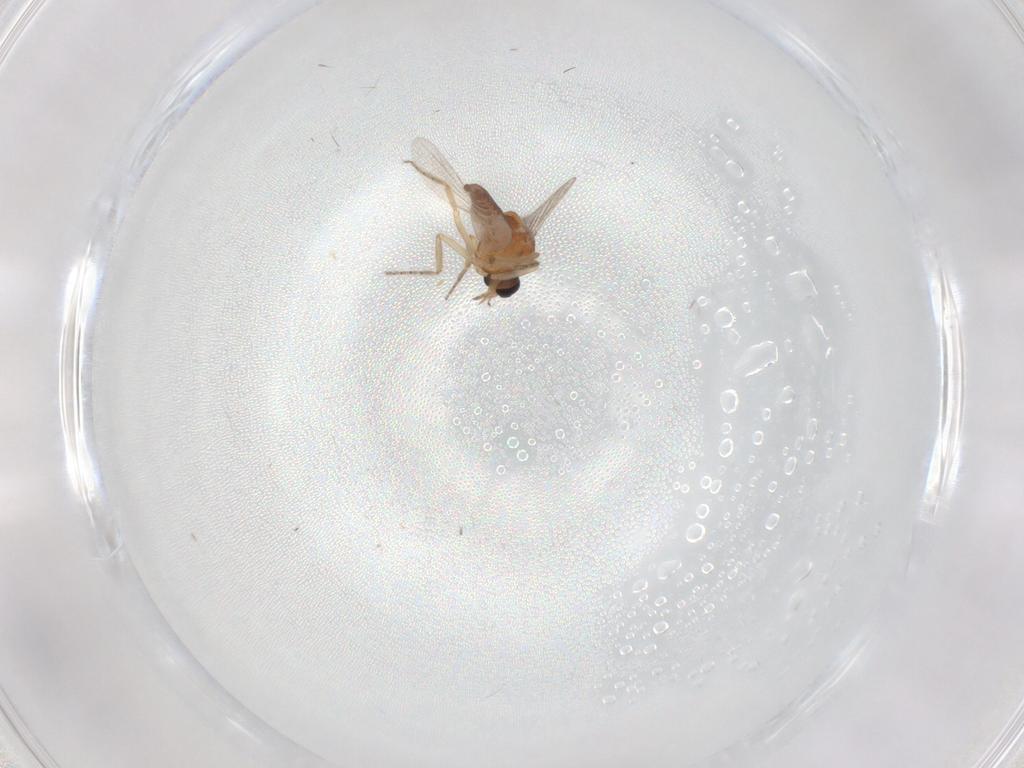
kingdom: Animalia
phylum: Arthropoda
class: Insecta
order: Diptera
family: Ceratopogonidae
